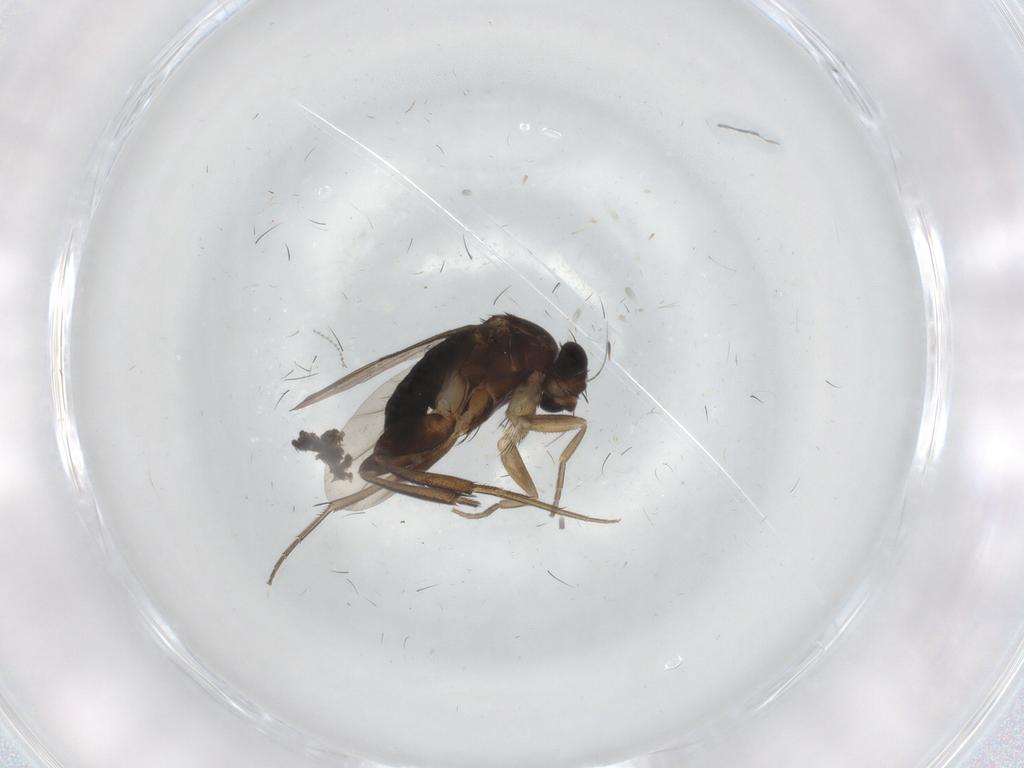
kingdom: Animalia
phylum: Arthropoda
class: Insecta
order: Diptera
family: Phoridae
